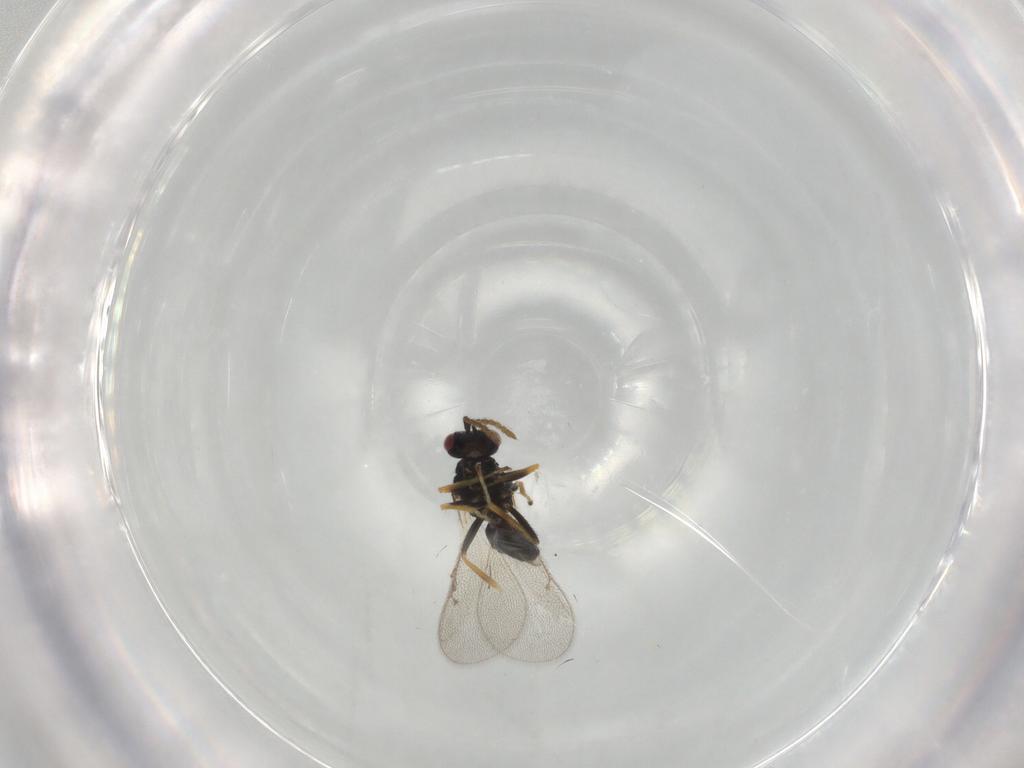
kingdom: Animalia
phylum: Arthropoda
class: Insecta
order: Hymenoptera
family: Eulophidae
